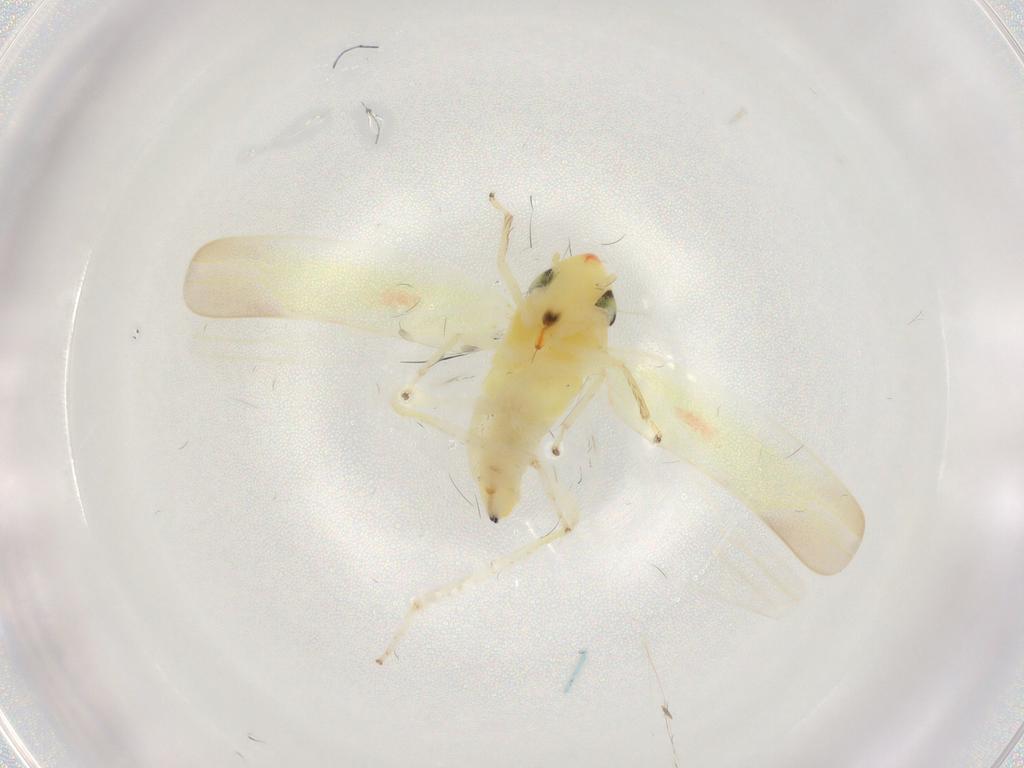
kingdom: Animalia
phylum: Arthropoda
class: Insecta
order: Hemiptera
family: Cicadellidae
